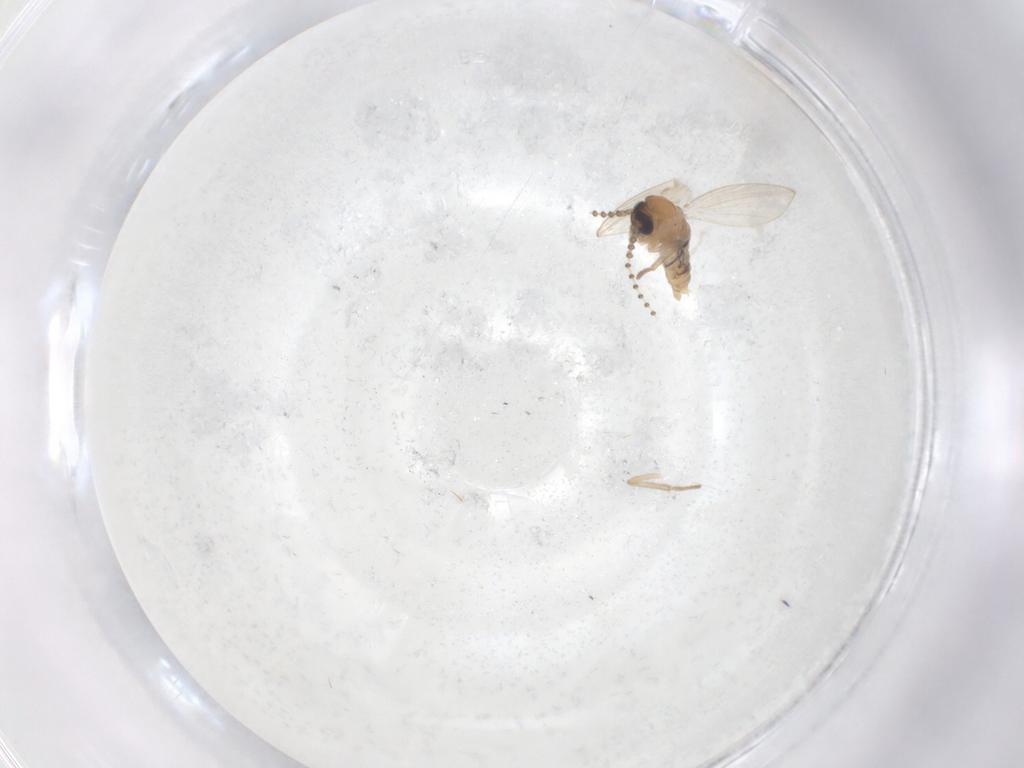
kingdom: Animalia
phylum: Arthropoda
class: Insecta
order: Diptera
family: Psychodidae
